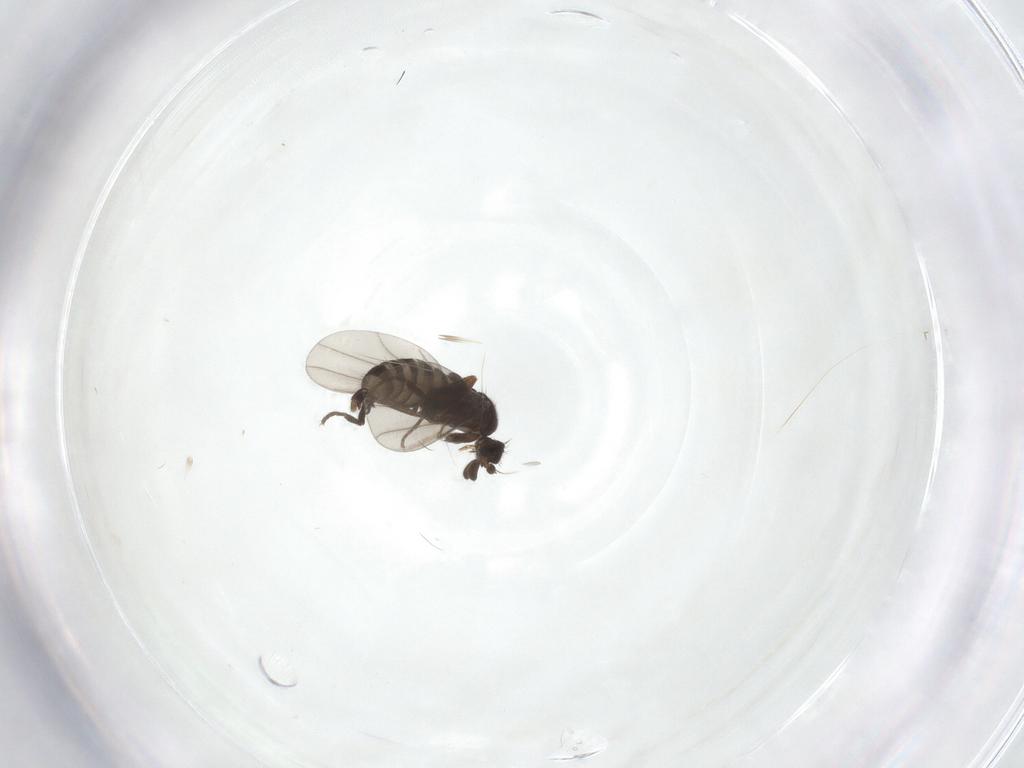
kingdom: Animalia
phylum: Arthropoda
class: Insecta
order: Diptera
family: Cecidomyiidae
